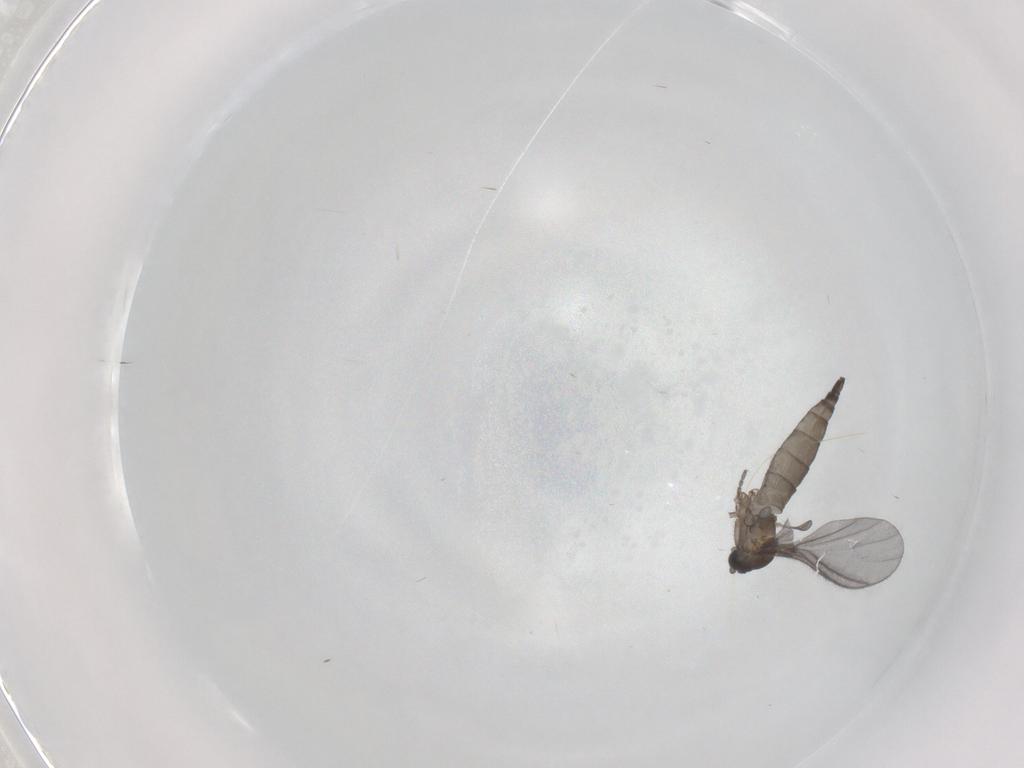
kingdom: Animalia
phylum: Arthropoda
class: Insecta
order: Diptera
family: Sciaridae
